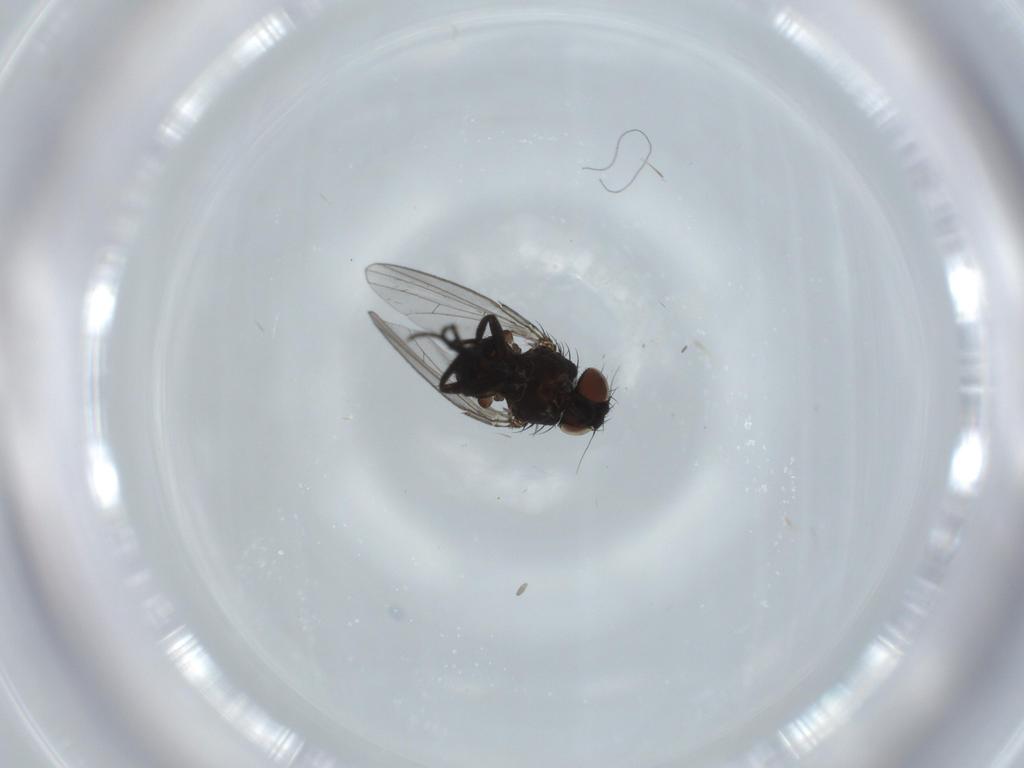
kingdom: Animalia
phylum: Arthropoda
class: Insecta
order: Diptera
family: Milichiidae
